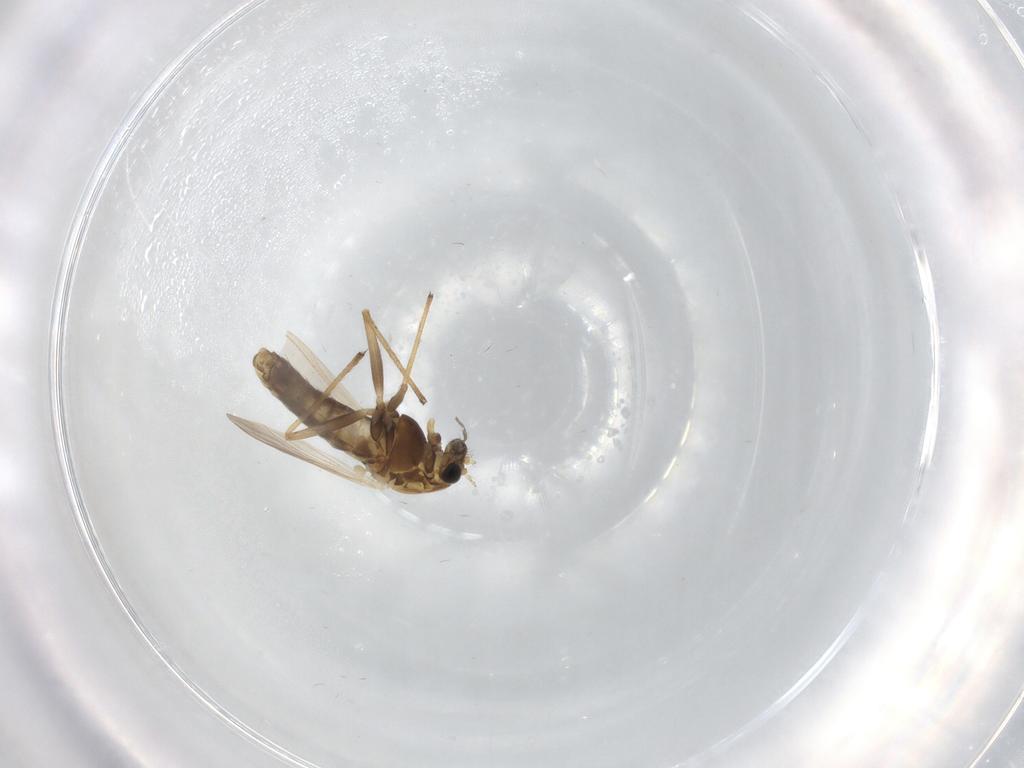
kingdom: Animalia
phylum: Arthropoda
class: Insecta
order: Diptera
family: Chironomidae
